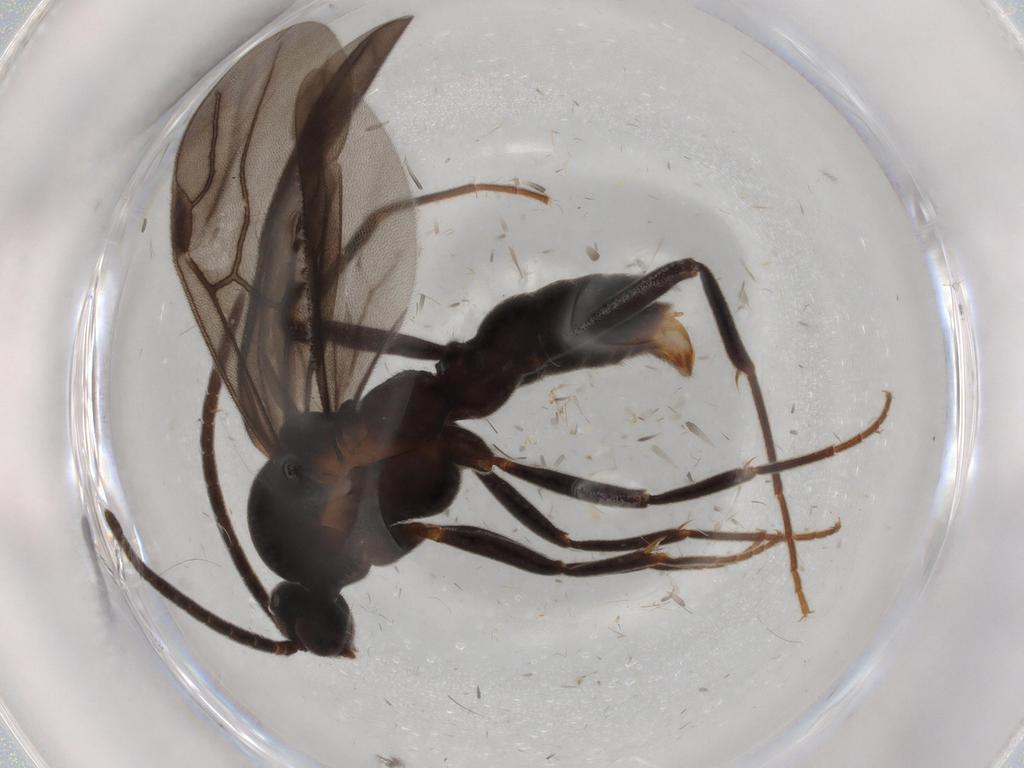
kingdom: Animalia
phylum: Arthropoda
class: Insecta
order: Hymenoptera
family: Formicidae
